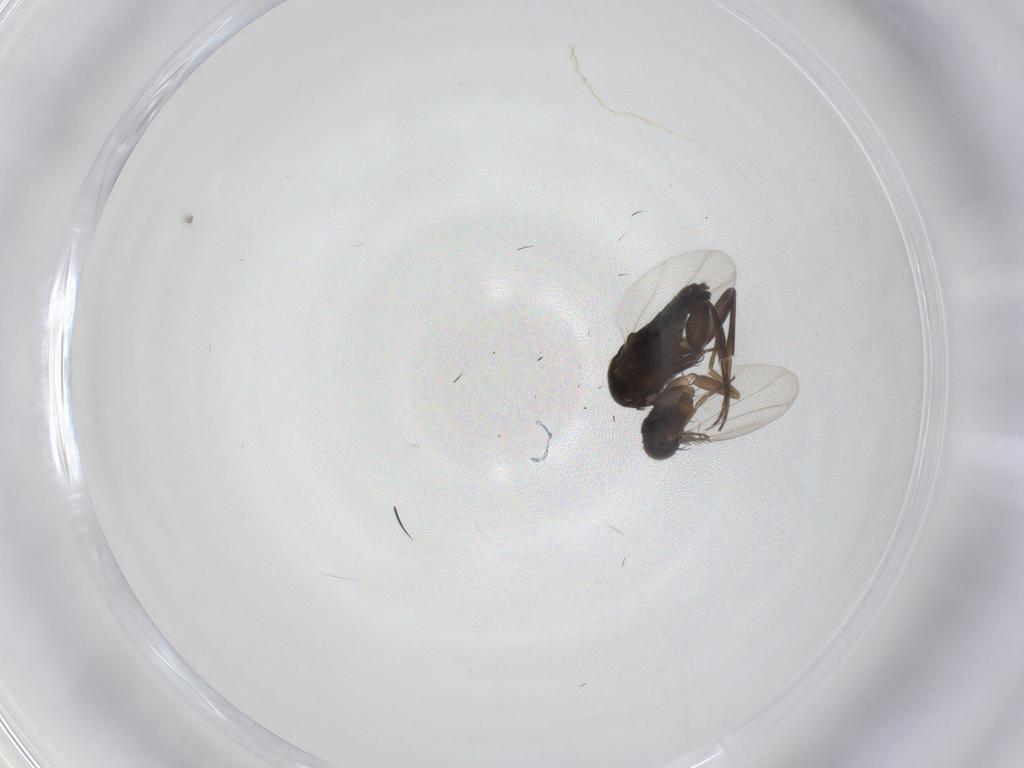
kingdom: Animalia
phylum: Arthropoda
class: Insecta
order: Diptera
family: Phoridae
